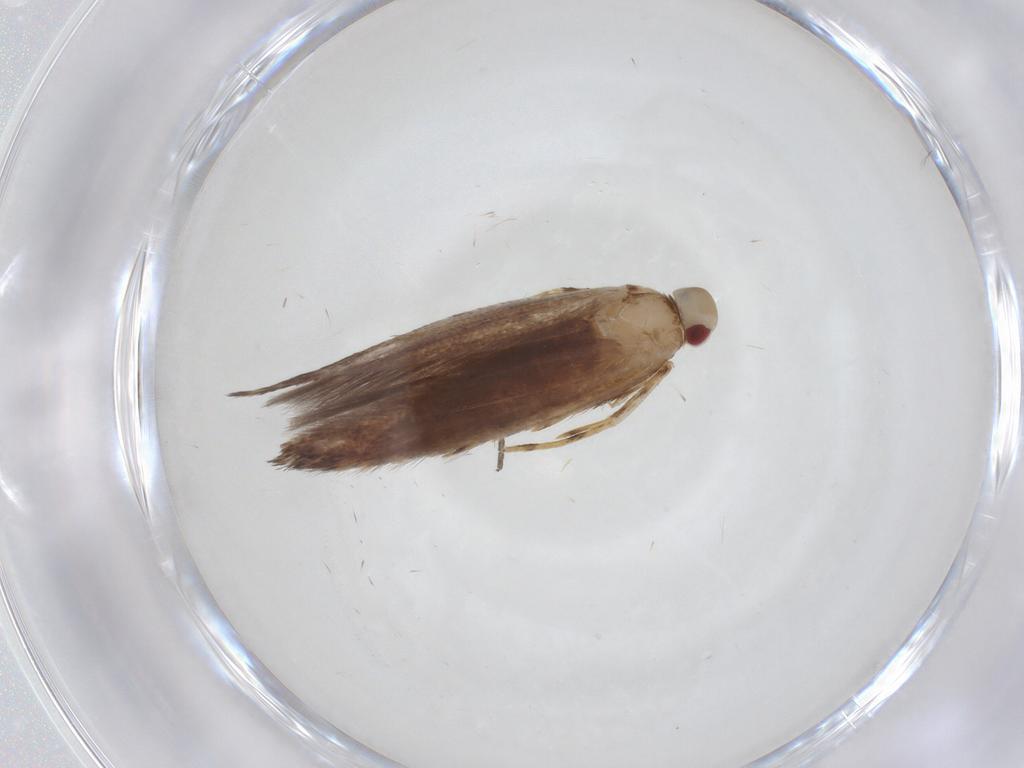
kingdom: Animalia
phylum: Arthropoda
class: Insecta
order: Lepidoptera
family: Cosmopterigidae
